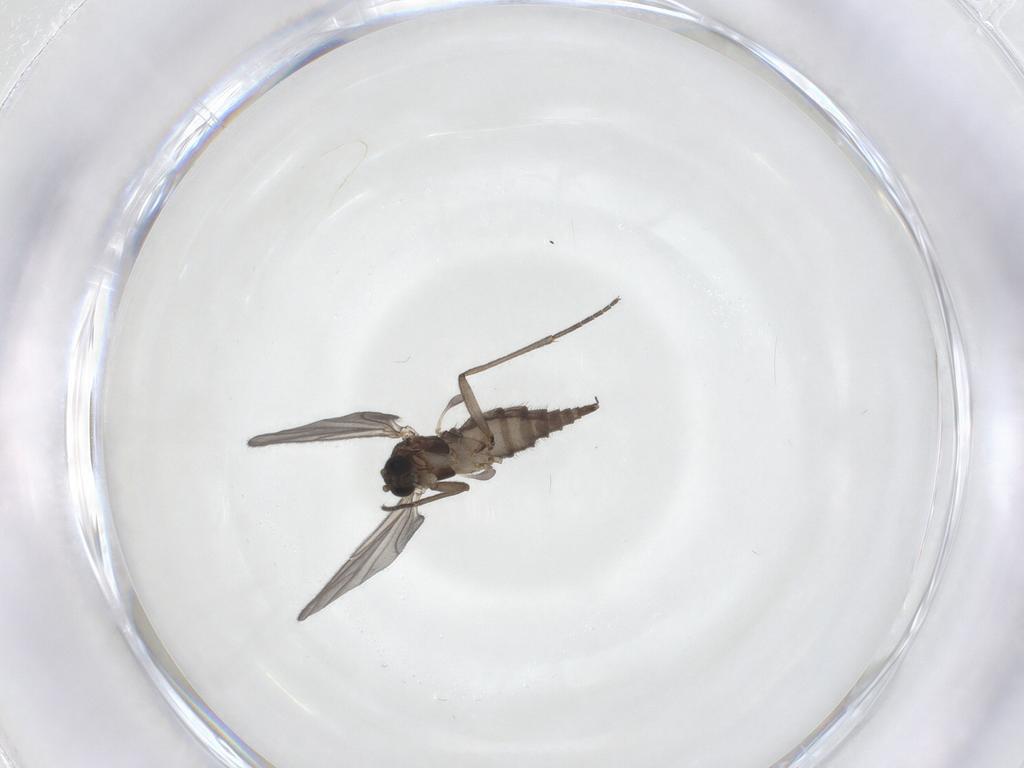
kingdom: Animalia
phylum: Arthropoda
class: Insecta
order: Diptera
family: Sciaridae
